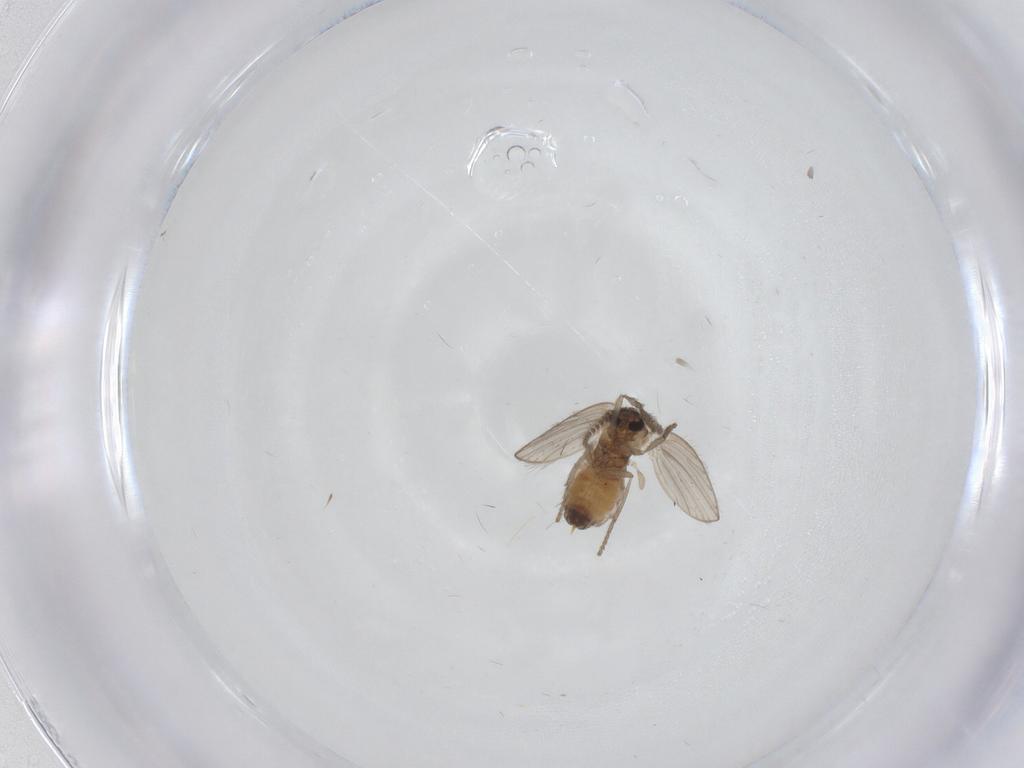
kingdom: Animalia
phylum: Arthropoda
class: Insecta
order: Diptera
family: Psychodidae
